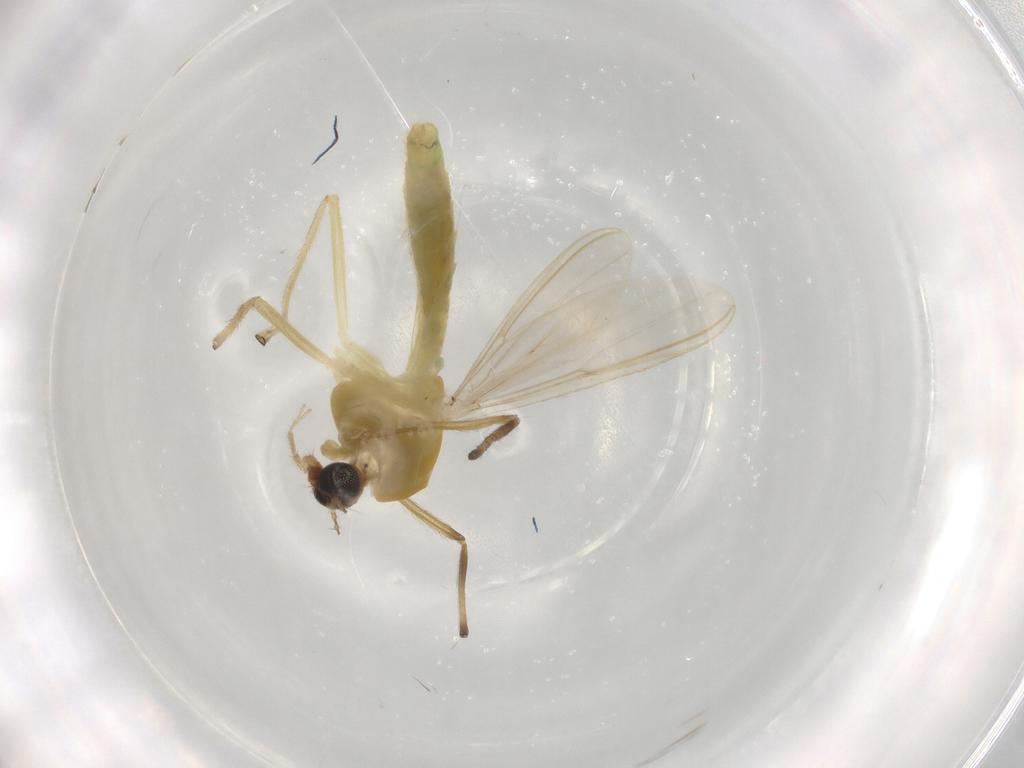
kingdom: Animalia
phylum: Arthropoda
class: Insecta
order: Diptera
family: Chironomidae
